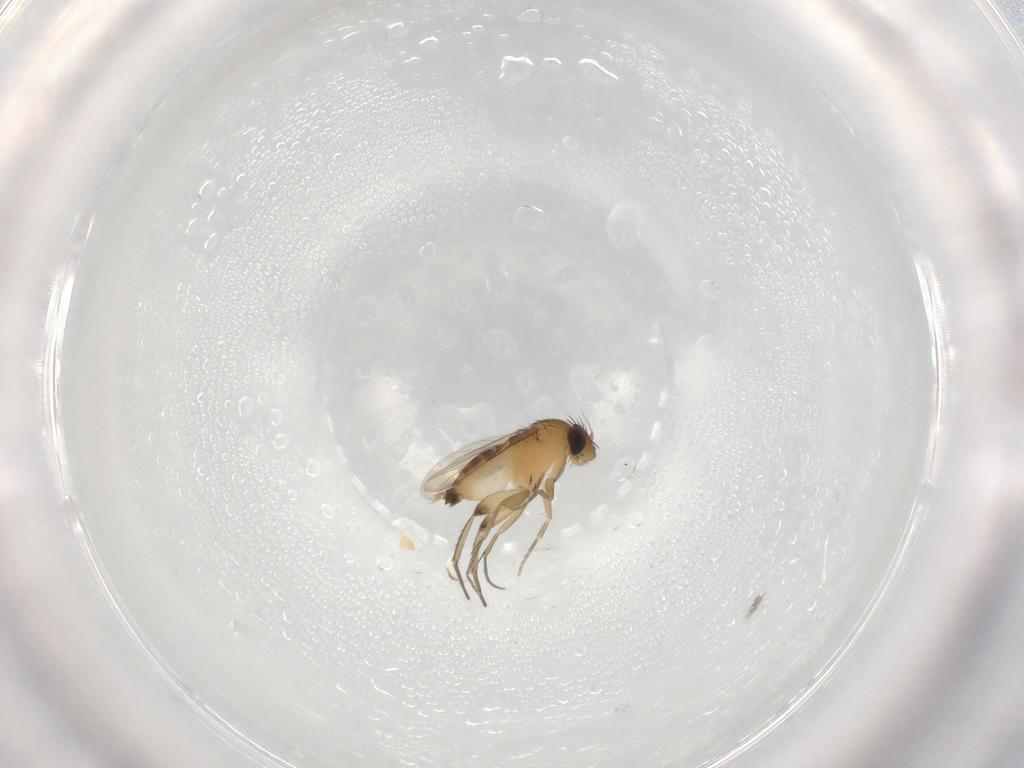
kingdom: Animalia
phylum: Arthropoda
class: Insecta
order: Diptera
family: Phoridae
